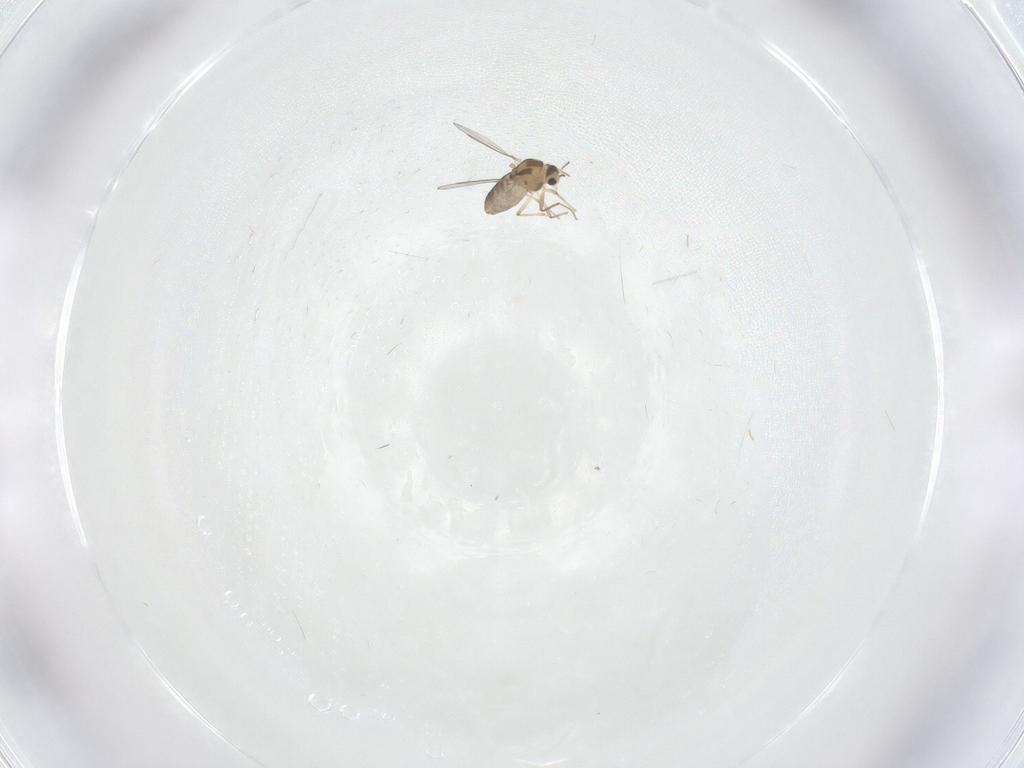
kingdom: Animalia
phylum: Arthropoda
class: Insecta
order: Diptera
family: Chironomidae
